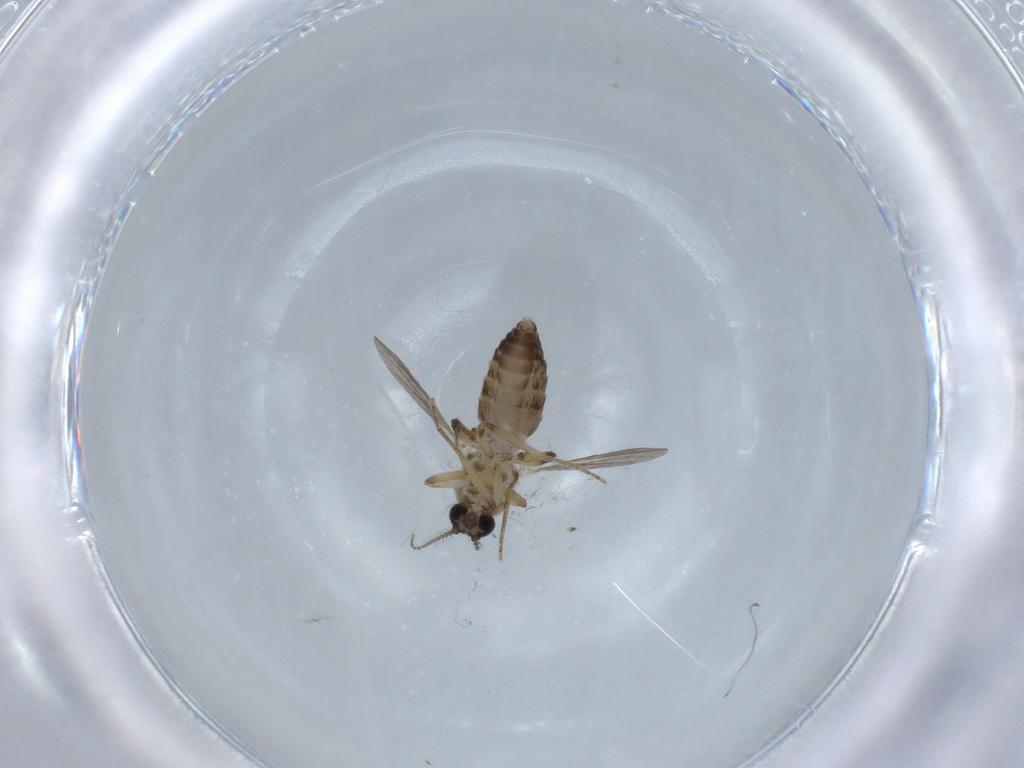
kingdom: Animalia
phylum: Arthropoda
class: Insecta
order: Diptera
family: Ceratopogonidae
